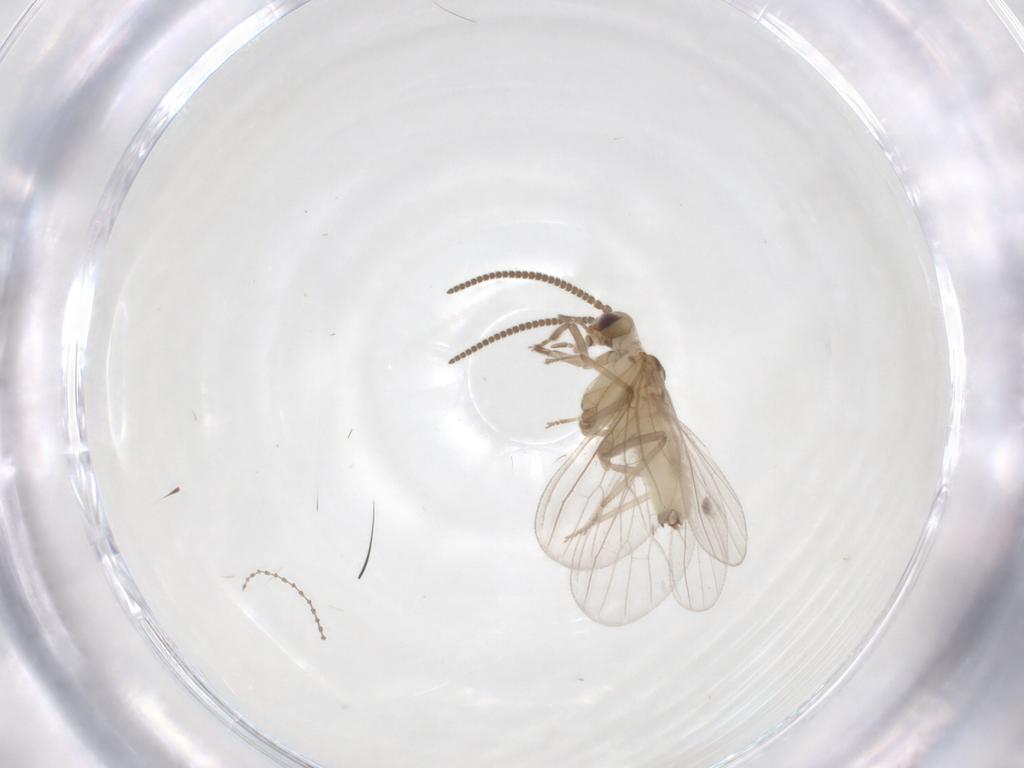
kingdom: Animalia
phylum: Arthropoda
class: Insecta
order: Neuroptera
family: Coniopterygidae
